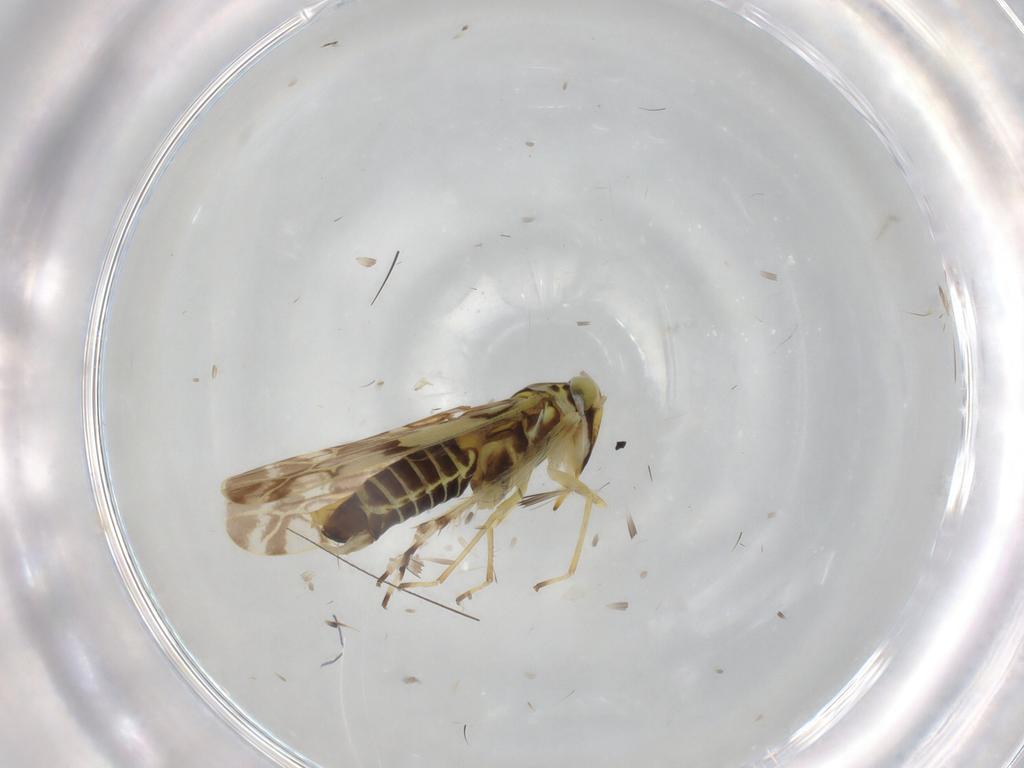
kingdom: Animalia
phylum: Arthropoda
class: Insecta
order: Hemiptera
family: Cicadellidae
